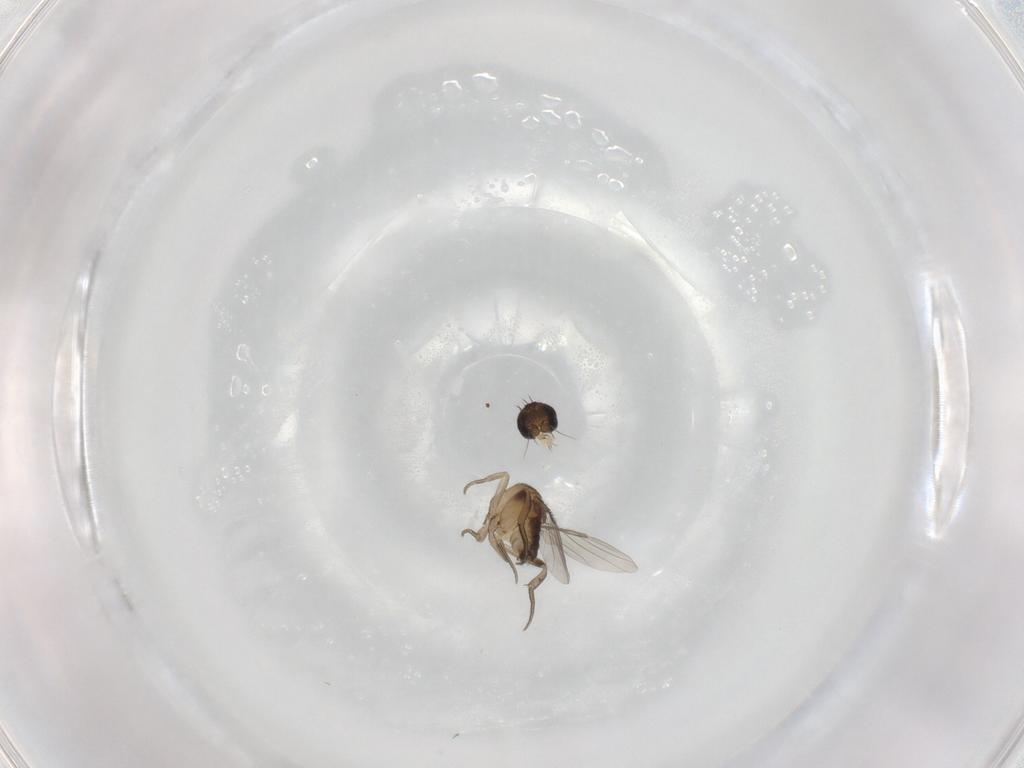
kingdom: Animalia
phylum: Arthropoda
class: Insecta
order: Diptera
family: Phoridae
